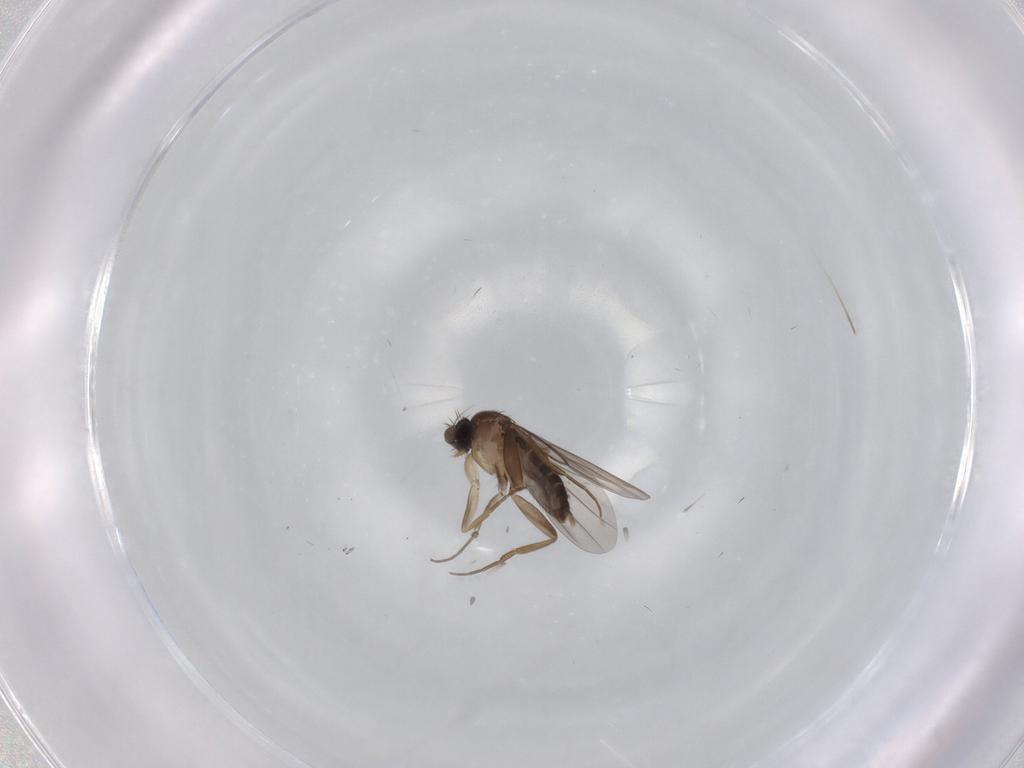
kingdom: Animalia
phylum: Arthropoda
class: Insecta
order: Diptera
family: Phoridae
